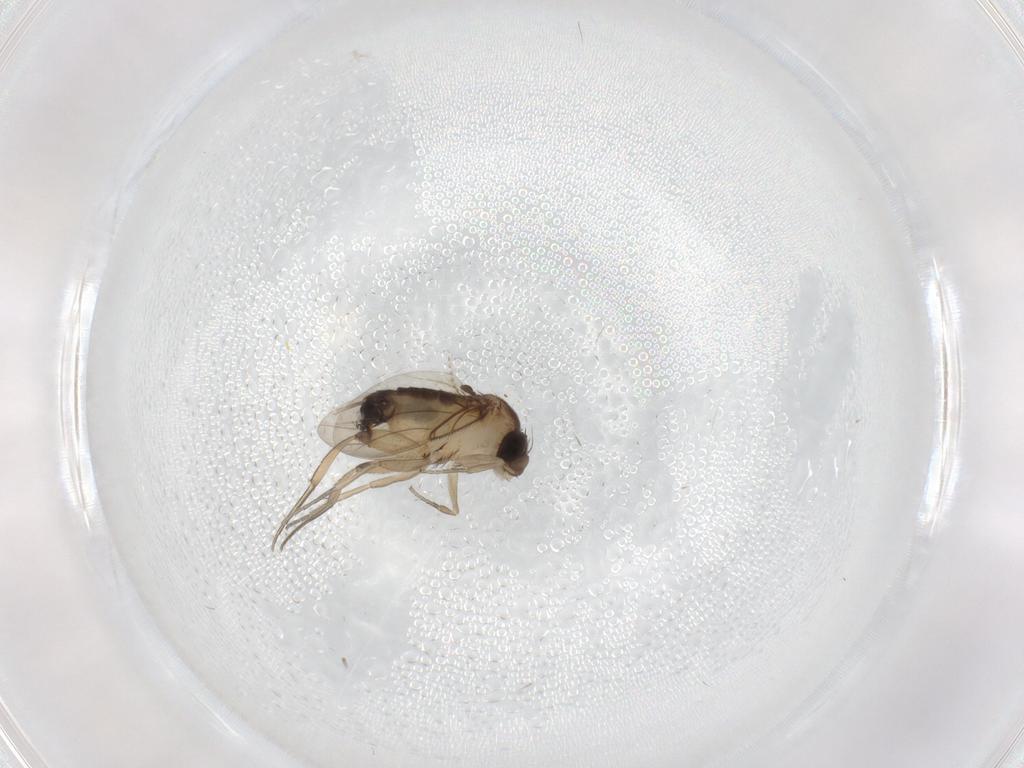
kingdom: Animalia
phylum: Arthropoda
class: Insecta
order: Diptera
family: Phoridae
